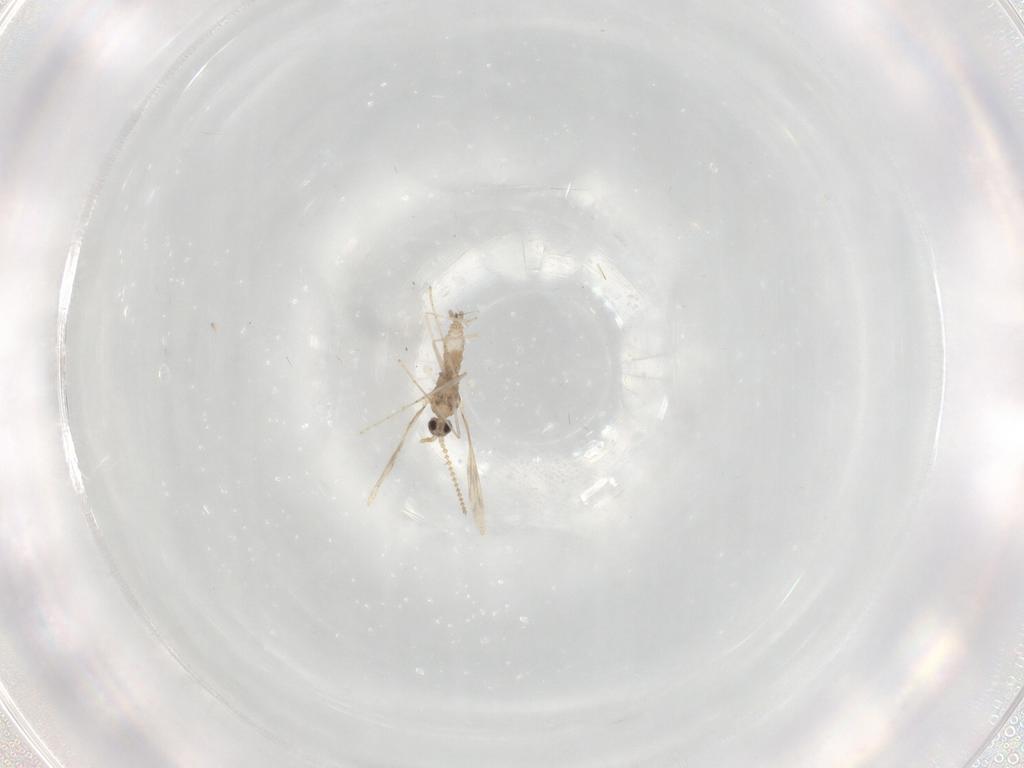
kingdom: Animalia
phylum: Arthropoda
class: Insecta
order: Diptera
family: Cecidomyiidae
